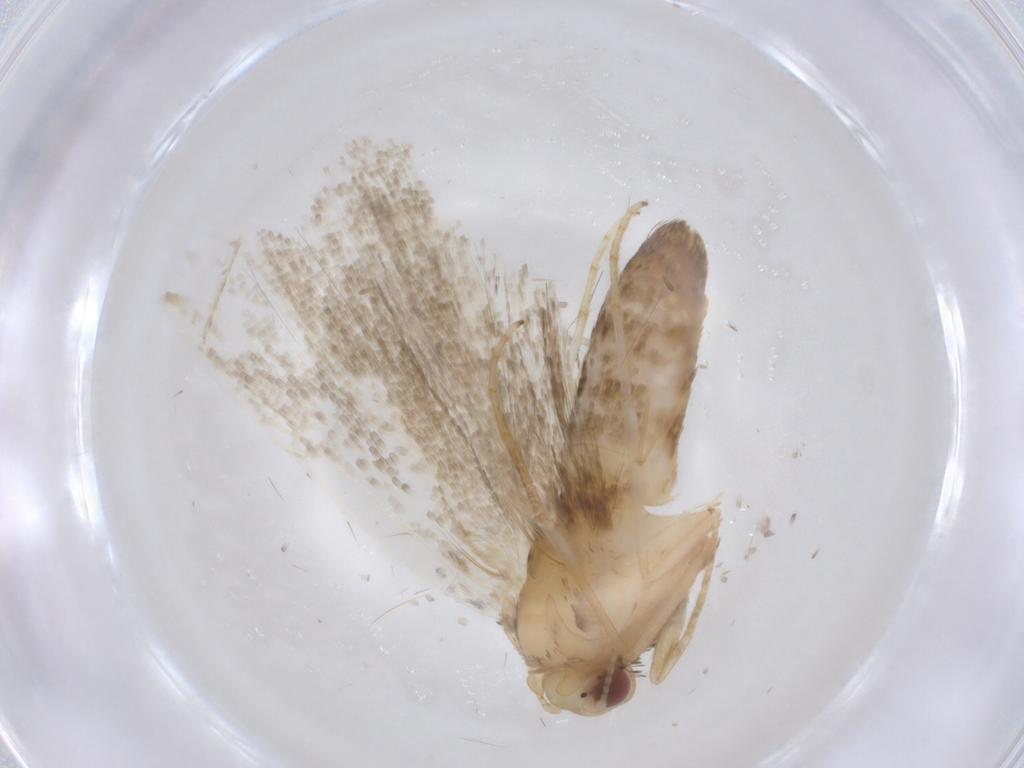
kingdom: Animalia
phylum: Arthropoda
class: Insecta
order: Lepidoptera
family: Erebidae
